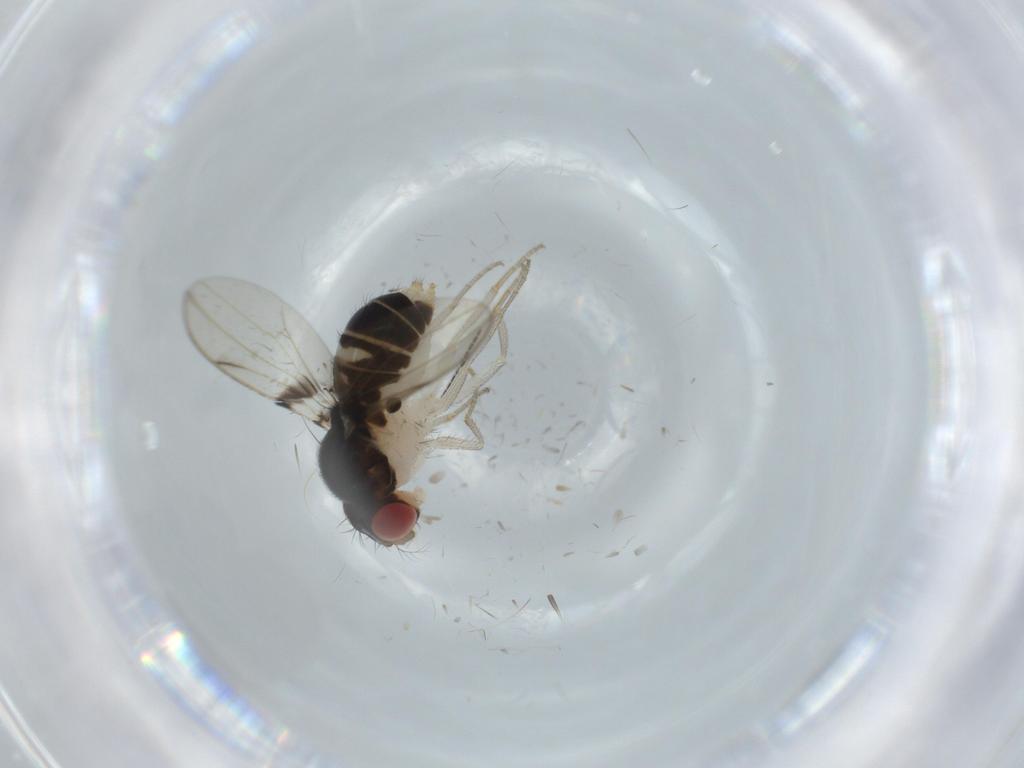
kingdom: Animalia
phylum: Arthropoda
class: Insecta
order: Diptera
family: Drosophilidae
